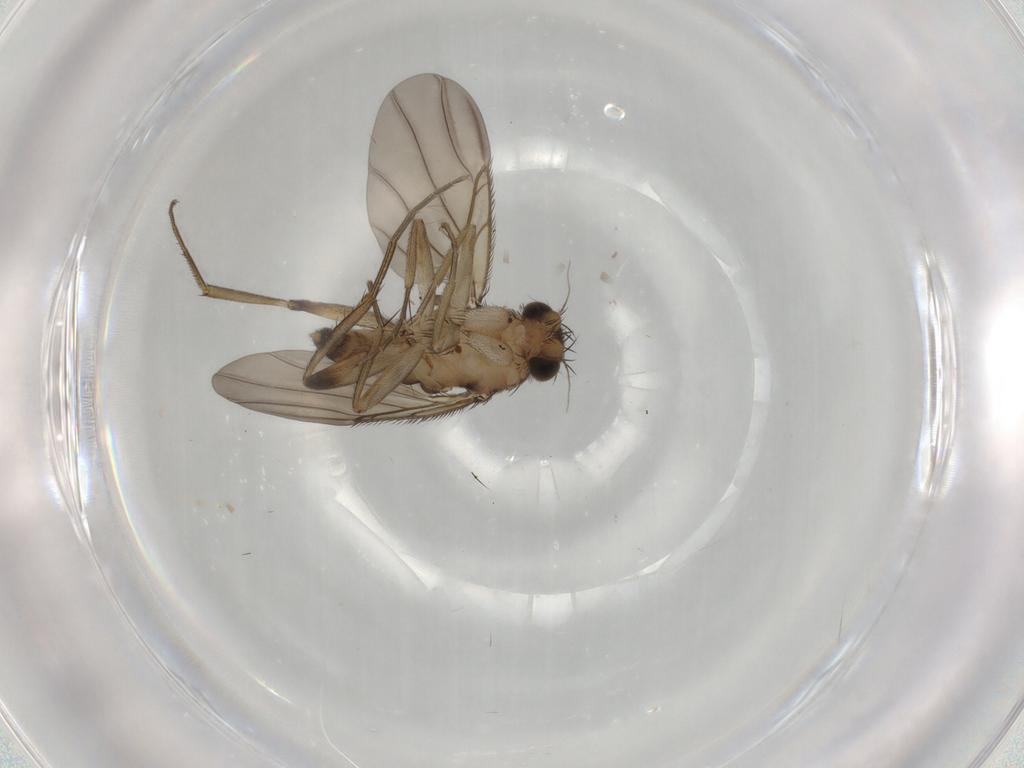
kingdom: Animalia
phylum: Arthropoda
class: Insecta
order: Diptera
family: Phoridae
